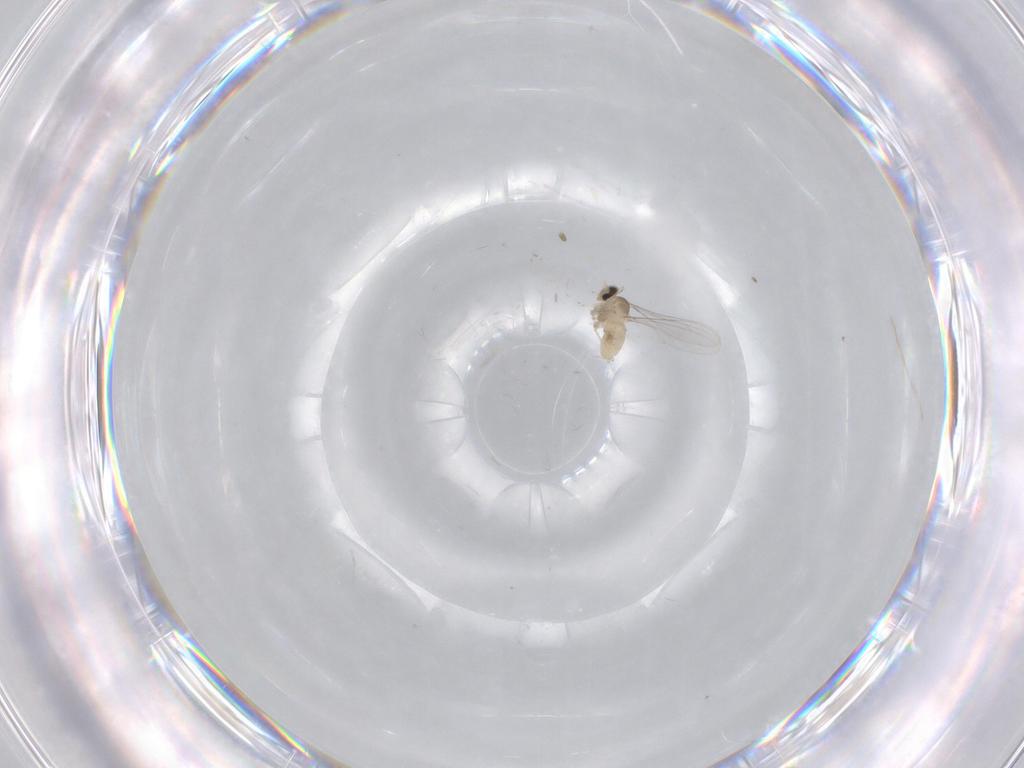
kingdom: Animalia
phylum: Arthropoda
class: Insecta
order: Diptera
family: Cecidomyiidae
